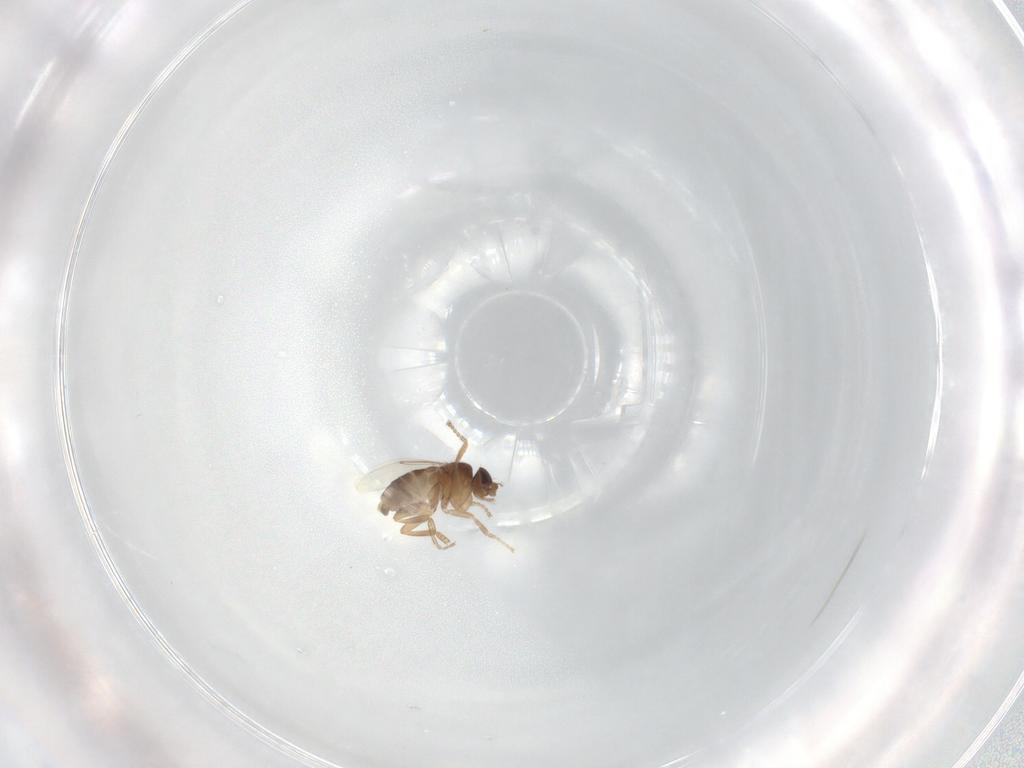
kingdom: Animalia
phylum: Arthropoda
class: Insecta
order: Diptera
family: Phoridae
